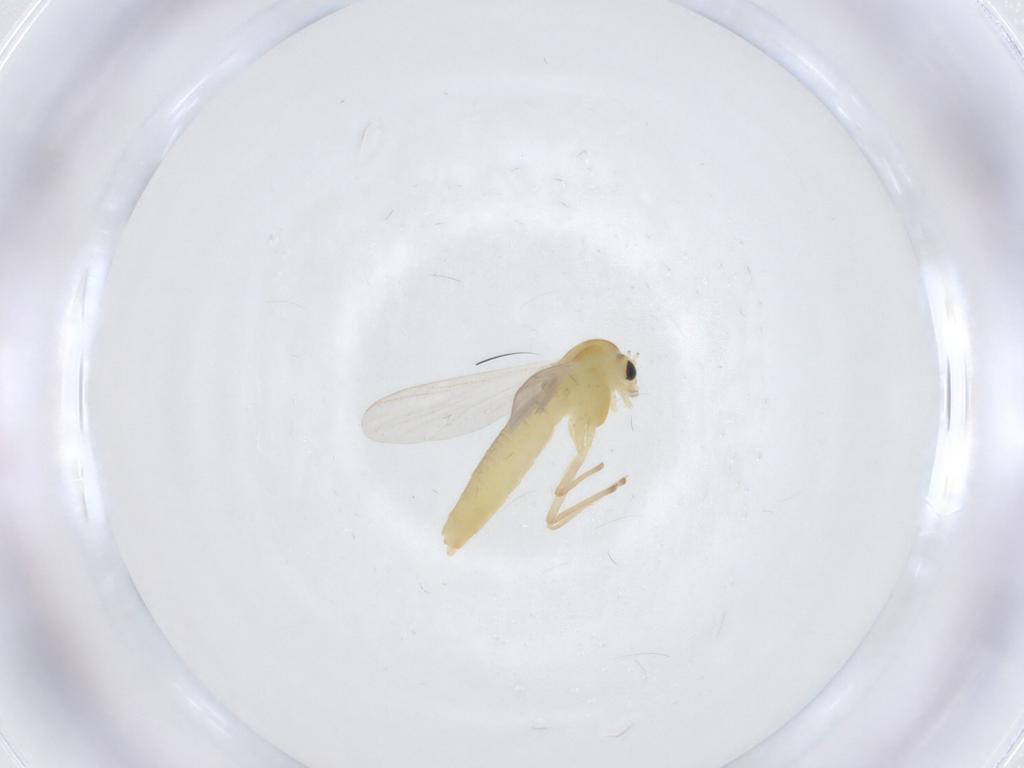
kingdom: Animalia
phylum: Arthropoda
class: Insecta
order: Diptera
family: Chironomidae
